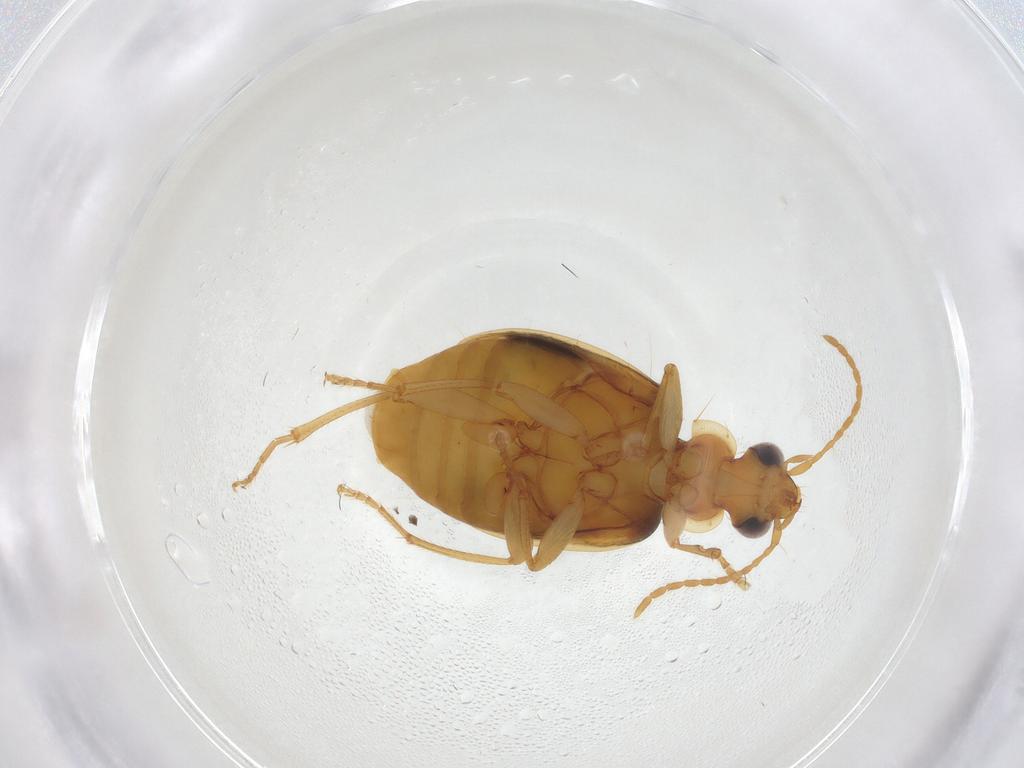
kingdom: Animalia
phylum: Arthropoda
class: Insecta
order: Coleoptera
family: Carabidae
